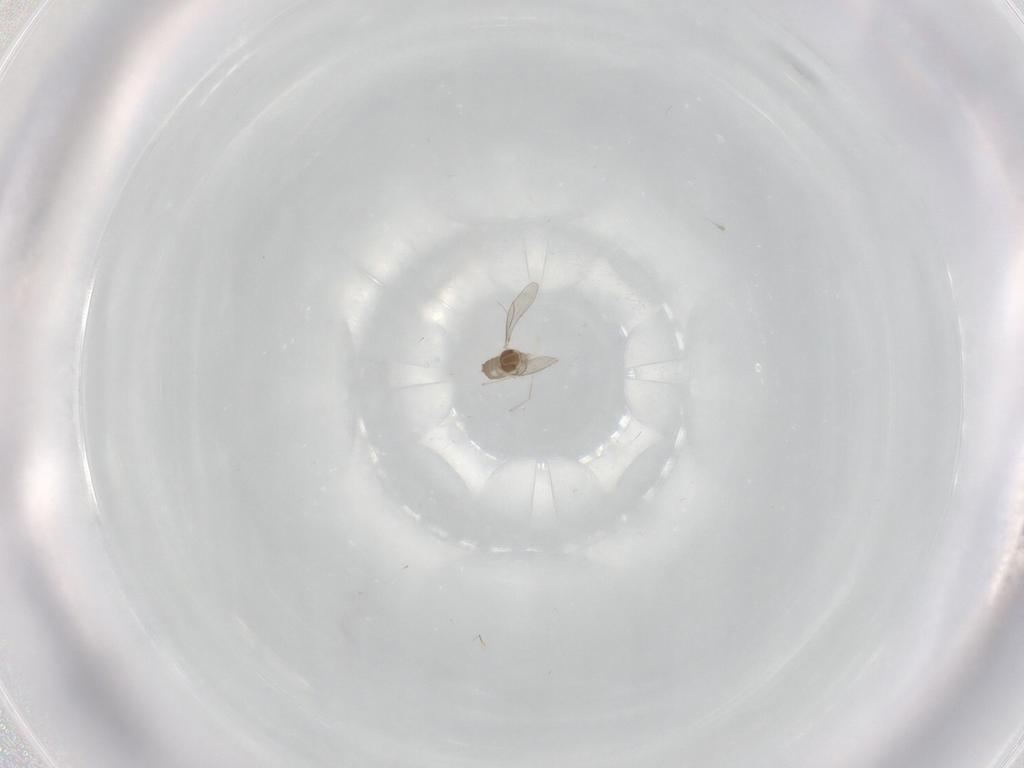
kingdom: Animalia
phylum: Arthropoda
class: Insecta
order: Diptera
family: Cecidomyiidae
